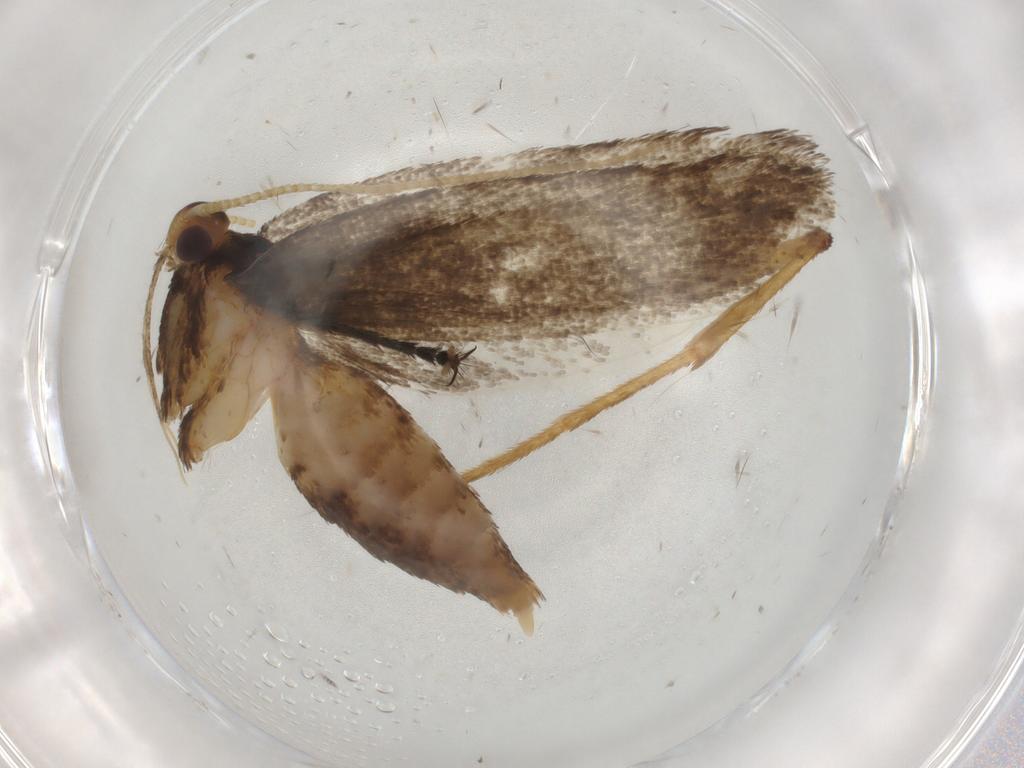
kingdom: Animalia
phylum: Arthropoda
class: Insecta
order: Lepidoptera
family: Lecithoceridae
